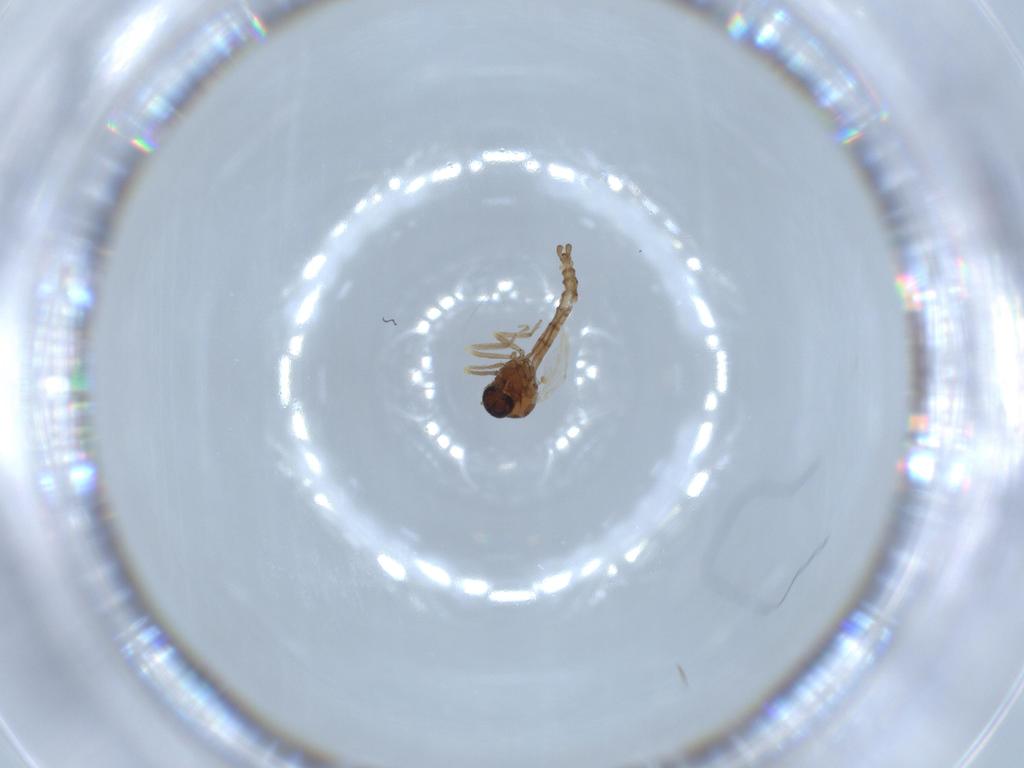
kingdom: Animalia
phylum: Arthropoda
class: Insecta
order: Diptera
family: Ceratopogonidae
